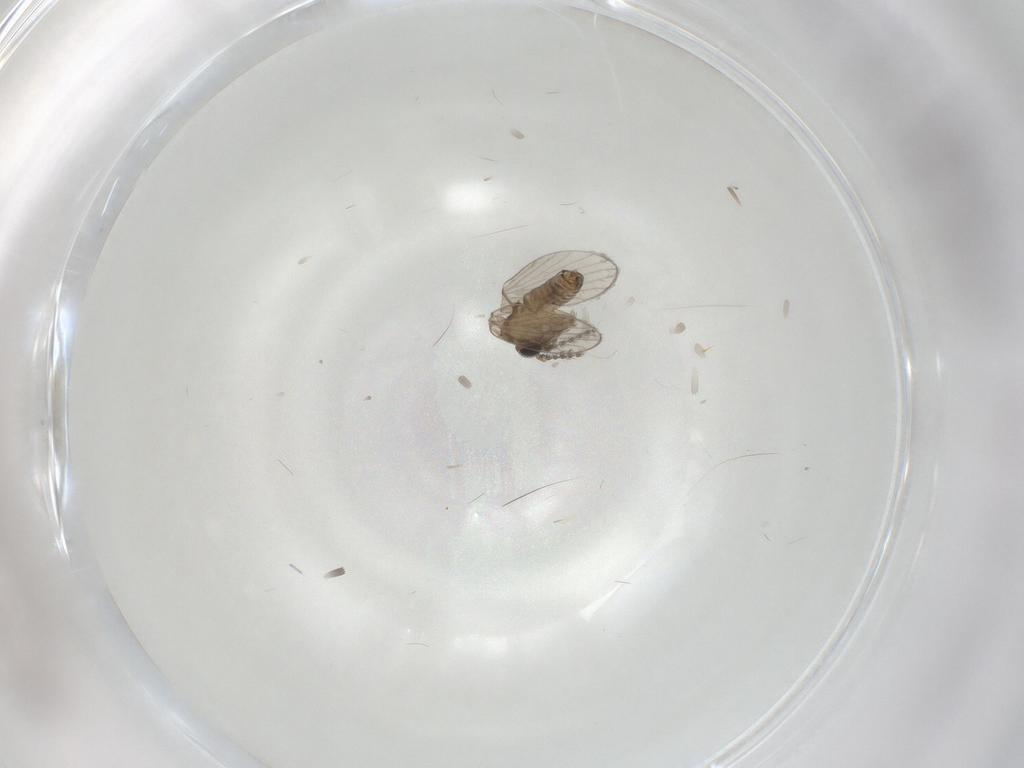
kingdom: Animalia
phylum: Arthropoda
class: Insecta
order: Diptera
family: Psychodidae
